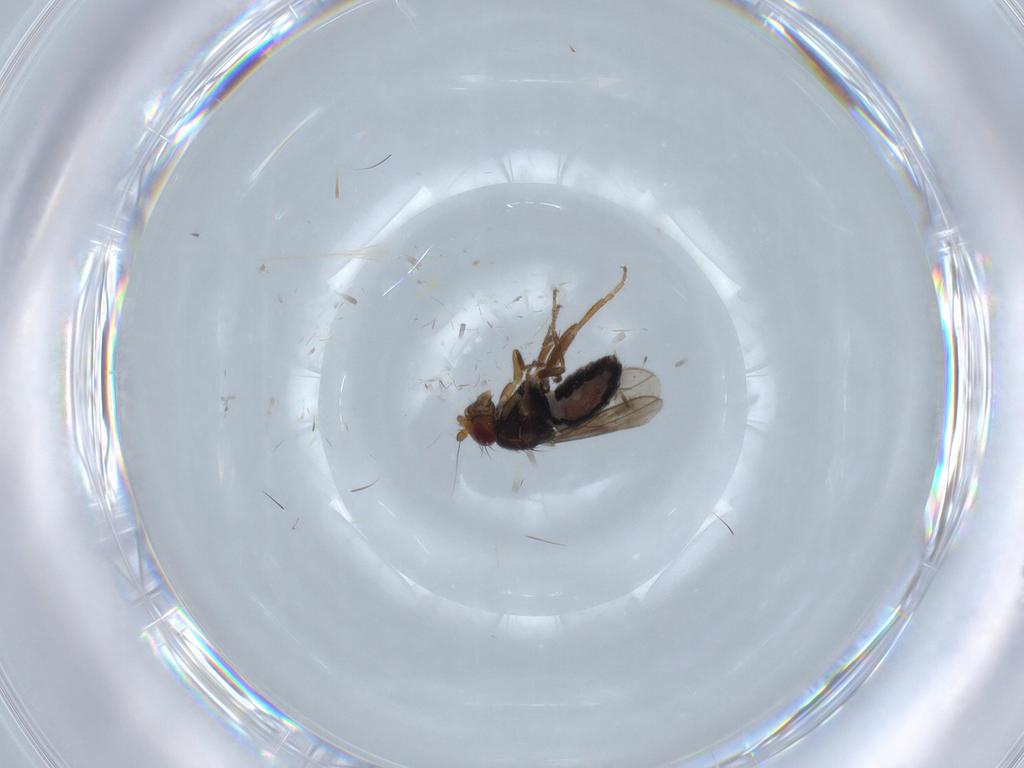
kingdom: Animalia
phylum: Arthropoda
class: Insecta
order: Diptera
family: Sphaeroceridae
